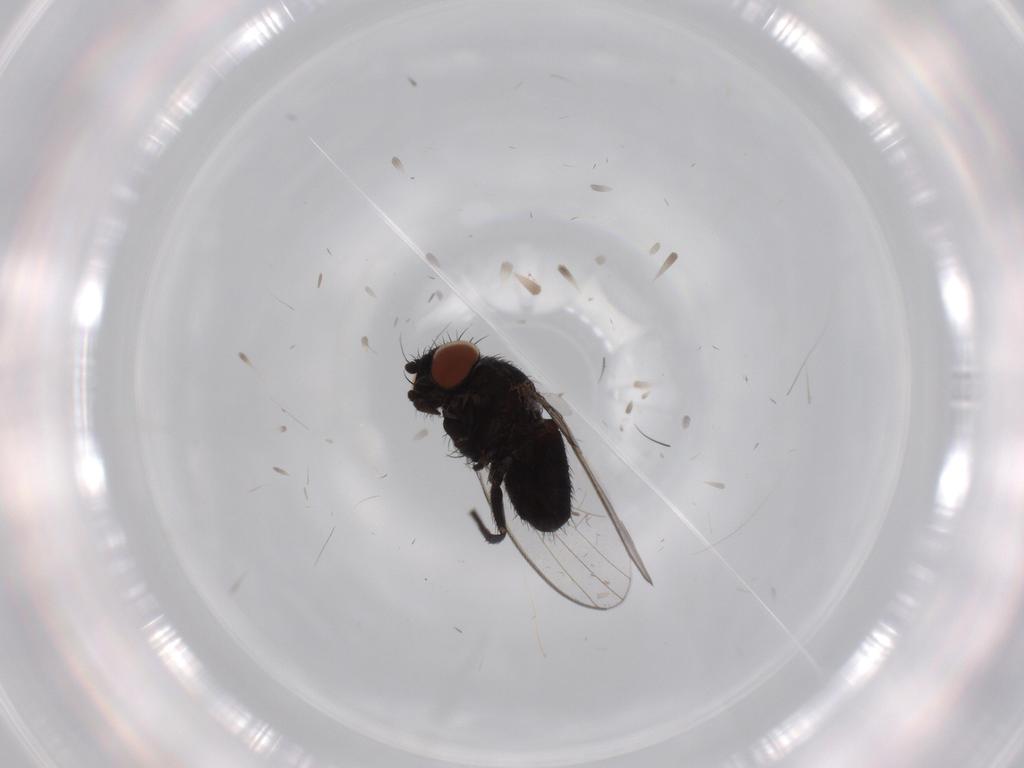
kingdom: Animalia
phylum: Arthropoda
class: Insecta
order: Diptera
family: Milichiidae
